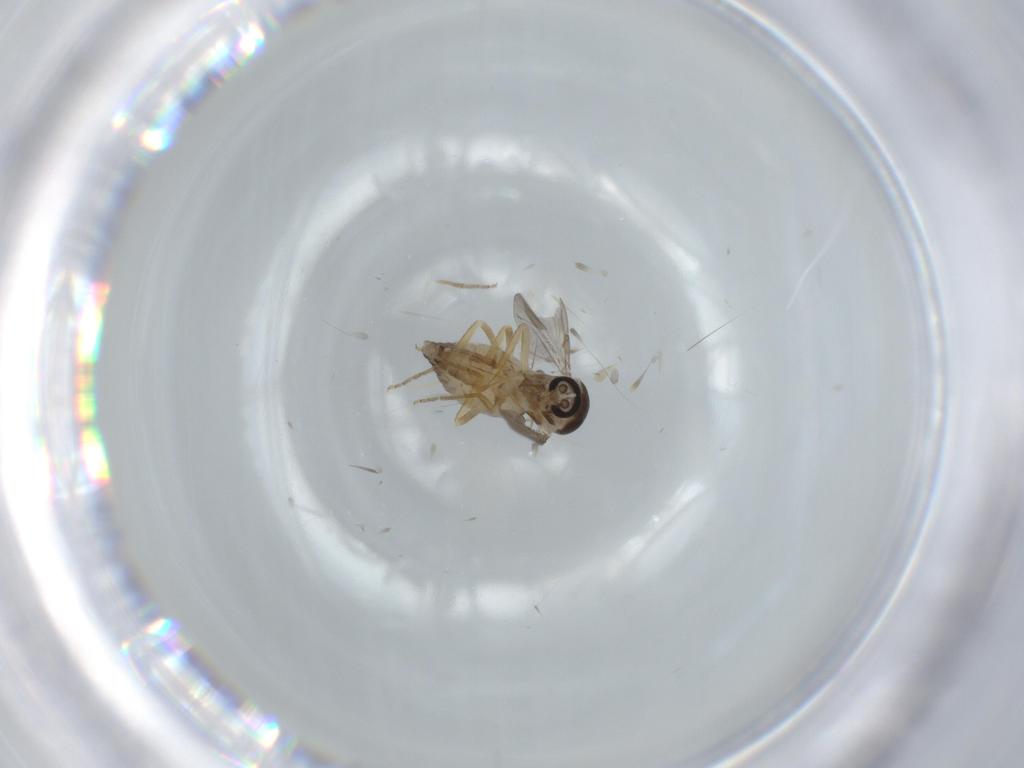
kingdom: Animalia
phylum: Arthropoda
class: Insecta
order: Diptera
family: Ceratopogonidae
